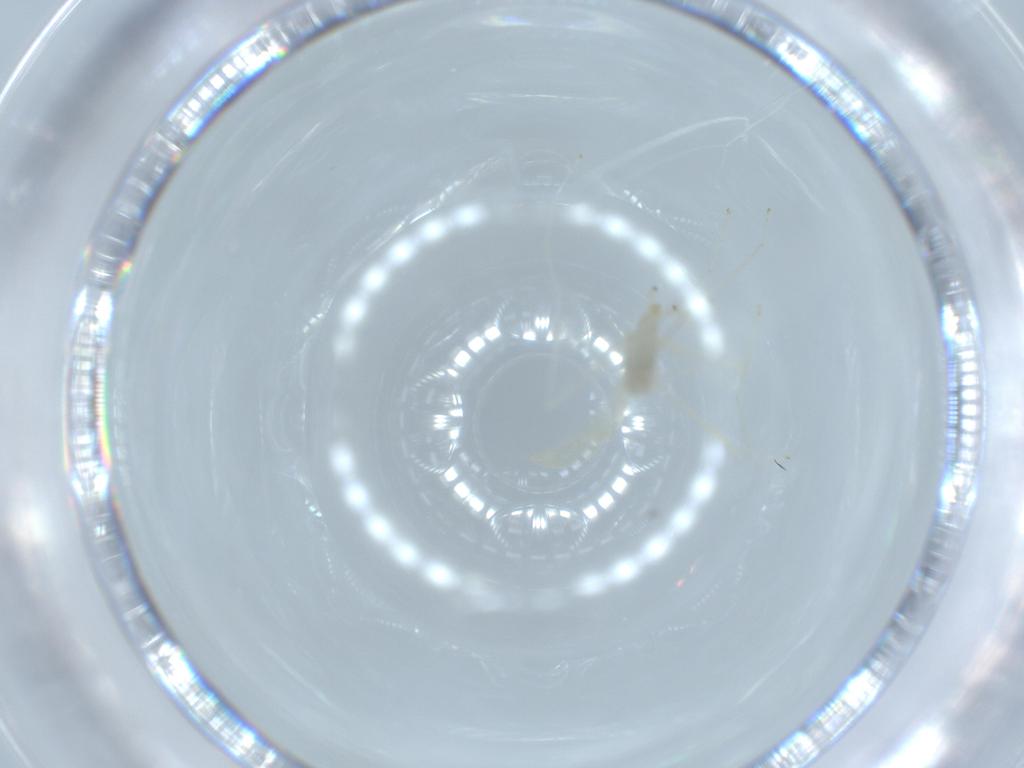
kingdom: Animalia
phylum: Arthropoda
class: Insecta
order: Diptera
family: Cecidomyiidae
